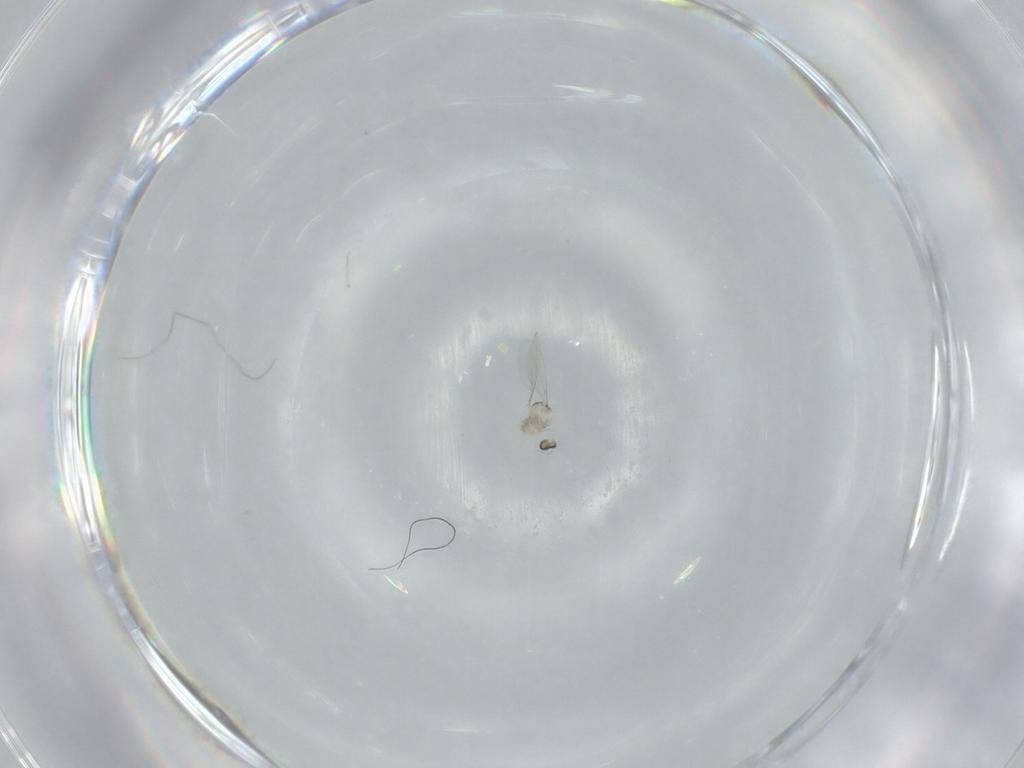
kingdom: Animalia
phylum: Arthropoda
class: Insecta
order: Diptera
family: Cecidomyiidae
